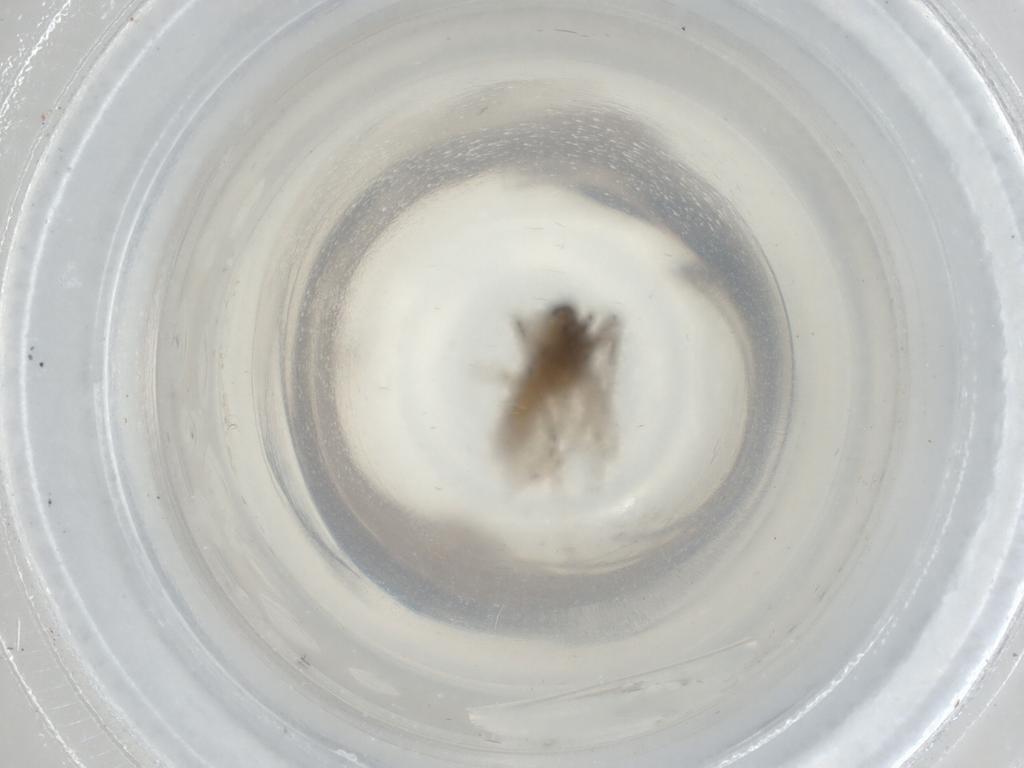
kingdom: Animalia
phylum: Arthropoda
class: Insecta
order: Diptera
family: Psychodidae
